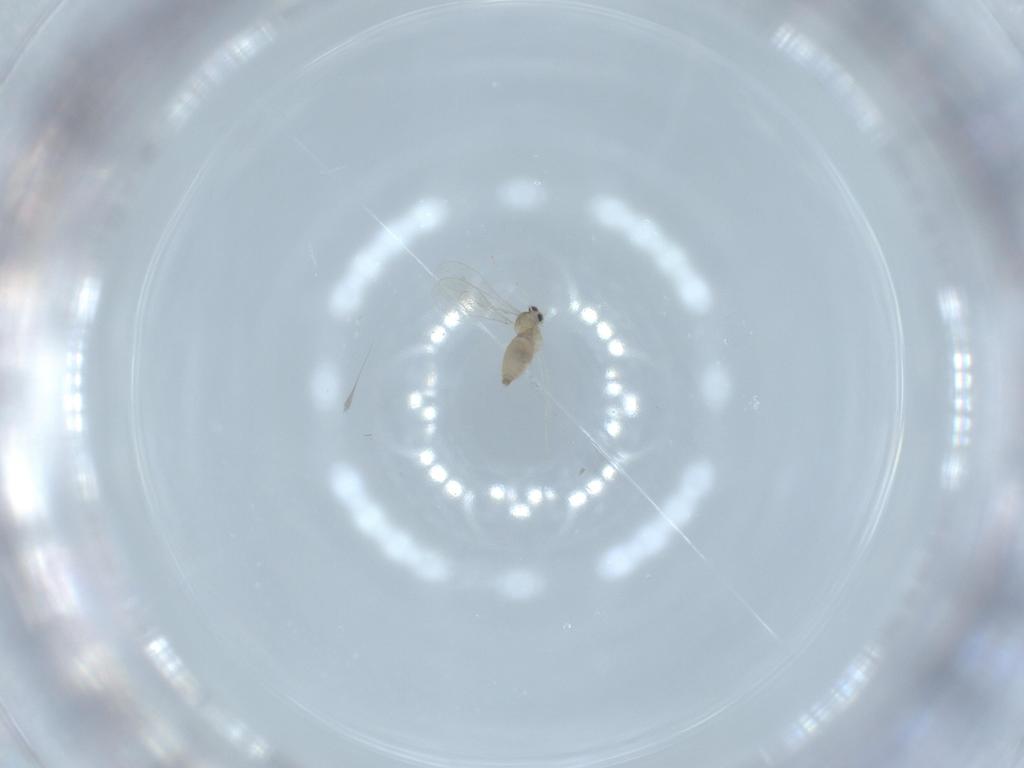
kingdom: Animalia
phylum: Arthropoda
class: Insecta
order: Diptera
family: Cecidomyiidae
